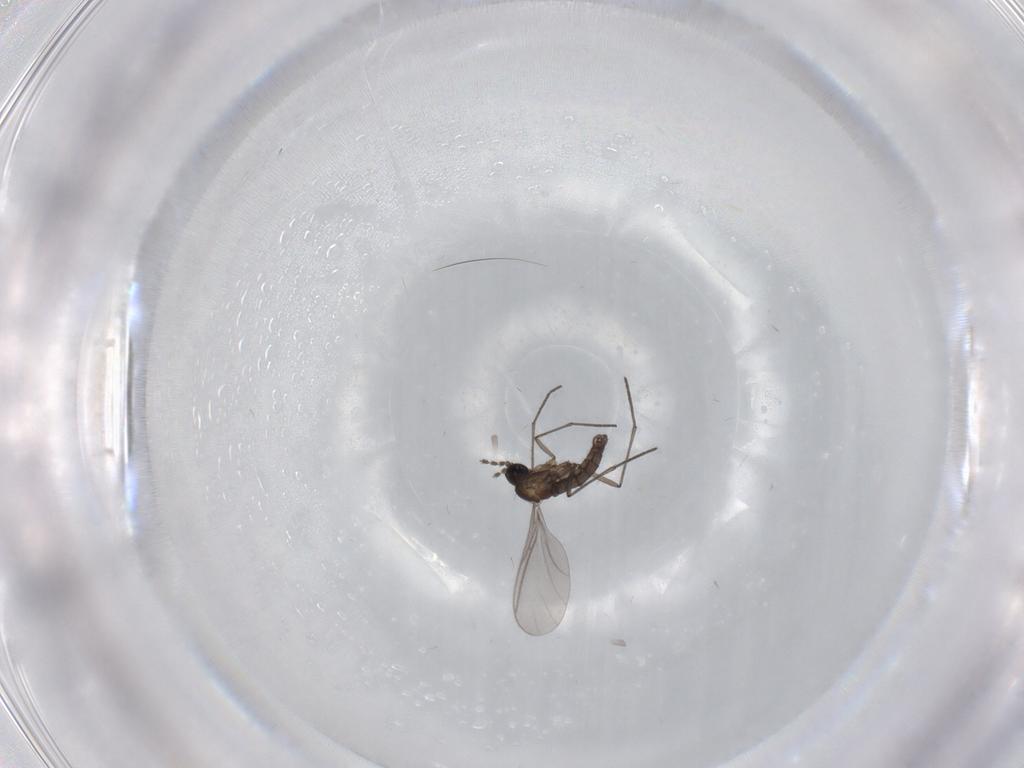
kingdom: Animalia
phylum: Arthropoda
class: Insecta
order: Diptera
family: Sciaridae
